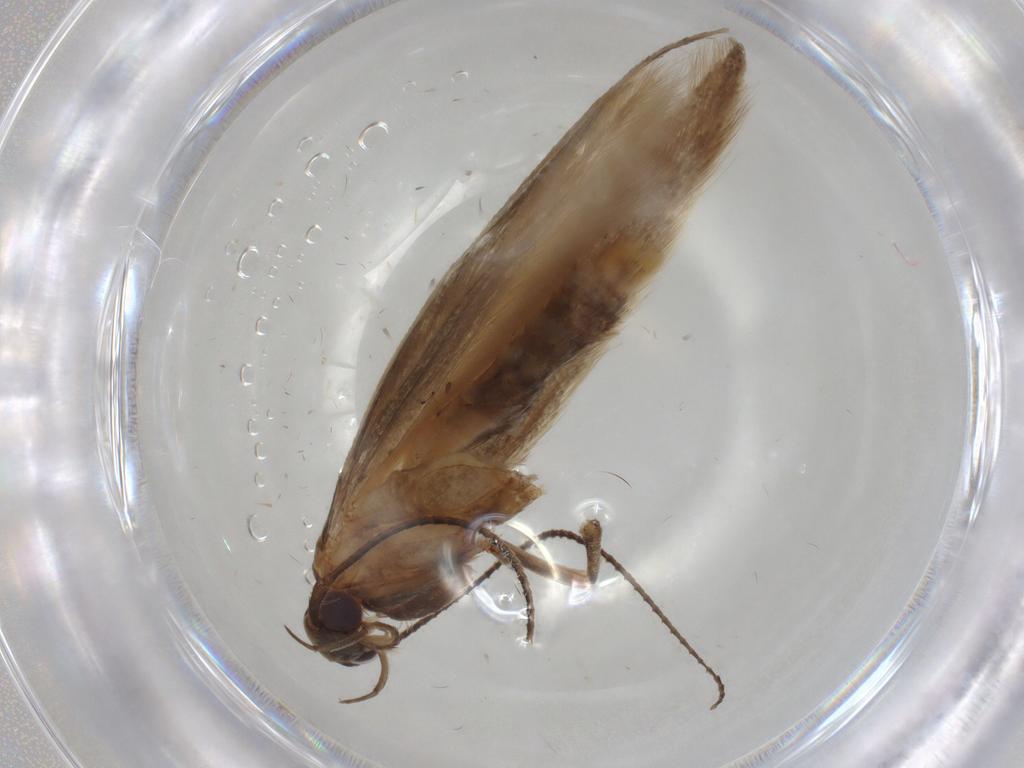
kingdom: Animalia
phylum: Arthropoda
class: Insecta
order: Lepidoptera
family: Elachistidae
